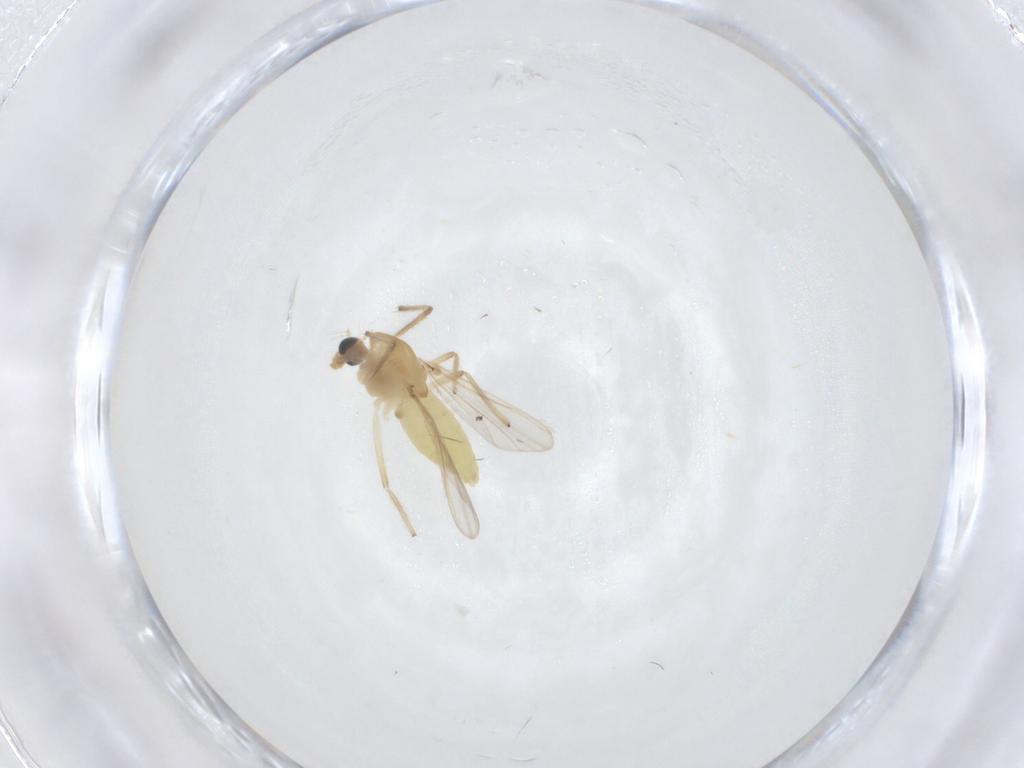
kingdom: Animalia
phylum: Arthropoda
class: Insecta
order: Diptera
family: Chironomidae
